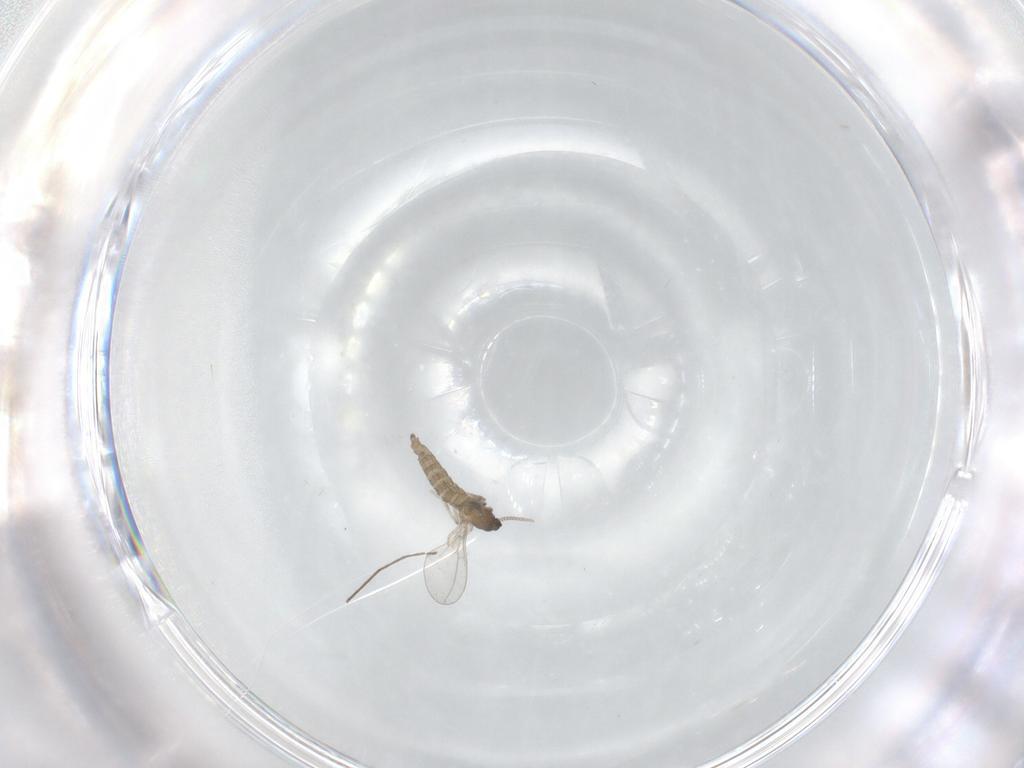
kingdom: Animalia
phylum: Arthropoda
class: Insecta
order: Diptera
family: Cecidomyiidae
